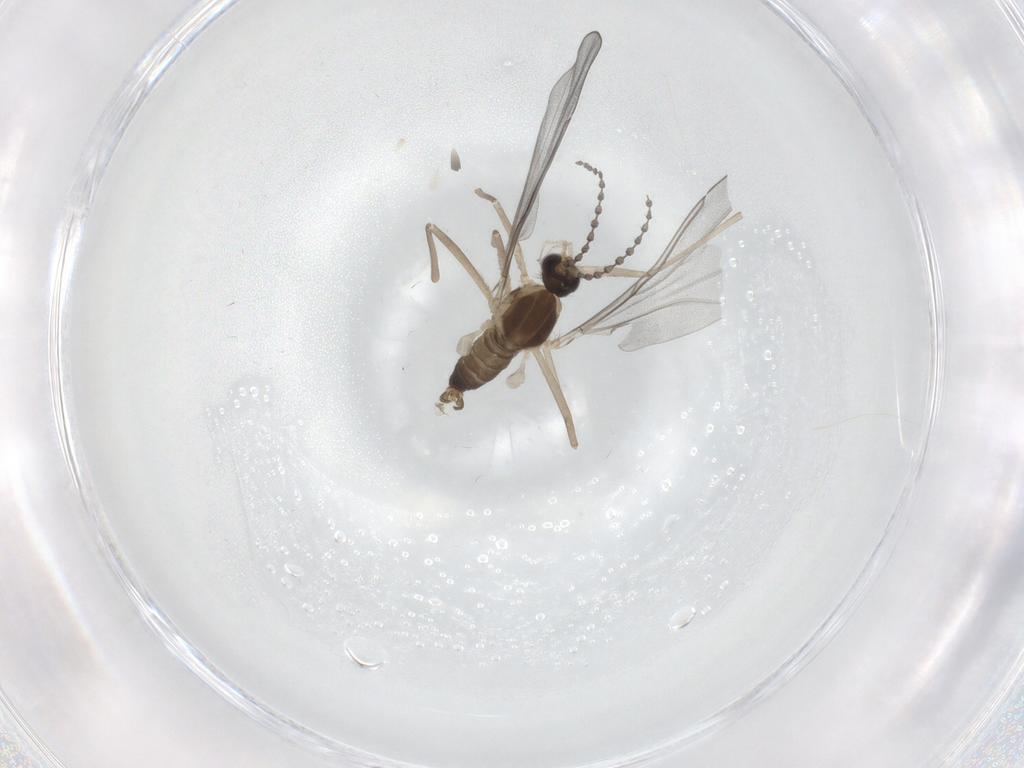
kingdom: Animalia
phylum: Arthropoda
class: Insecta
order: Diptera
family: Cecidomyiidae
